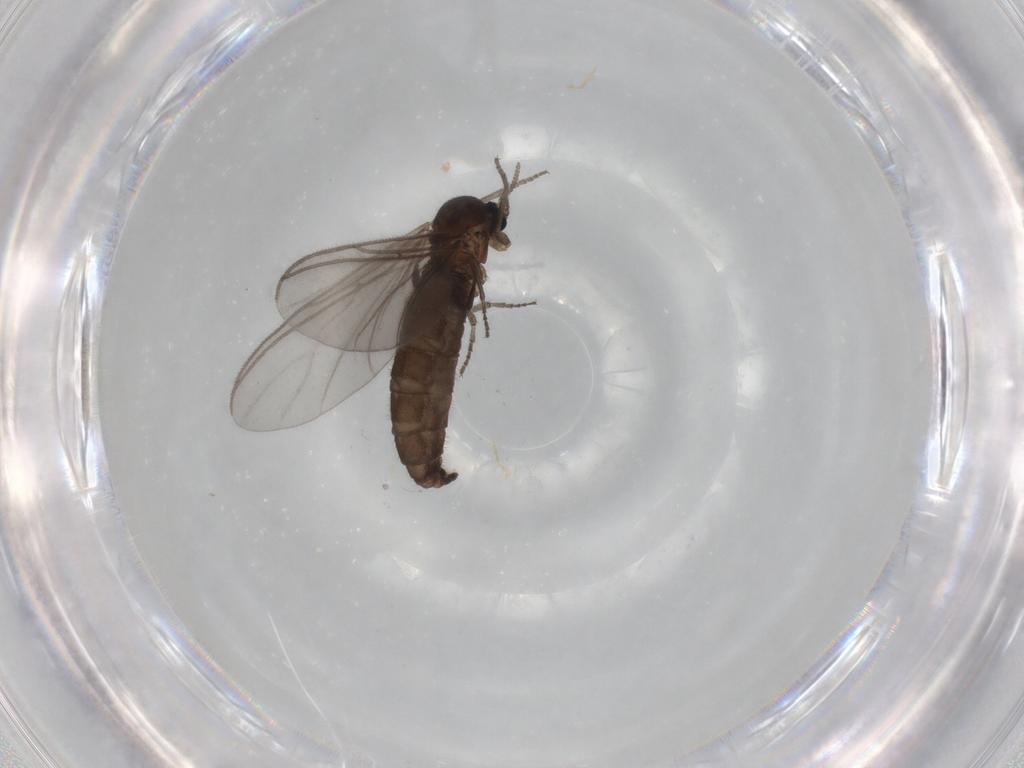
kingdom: Animalia
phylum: Arthropoda
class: Insecta
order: Diptera
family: Sciaridae
